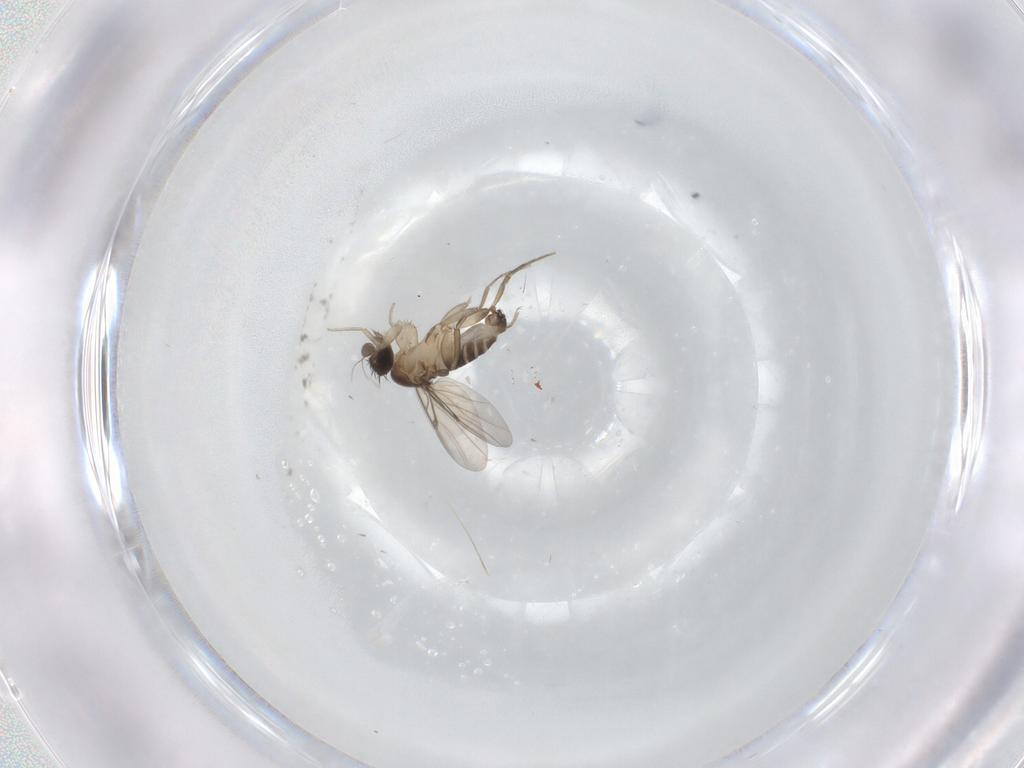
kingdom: Animalia
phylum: Arthropoda
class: Insecta
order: Diptera
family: Phoridae
